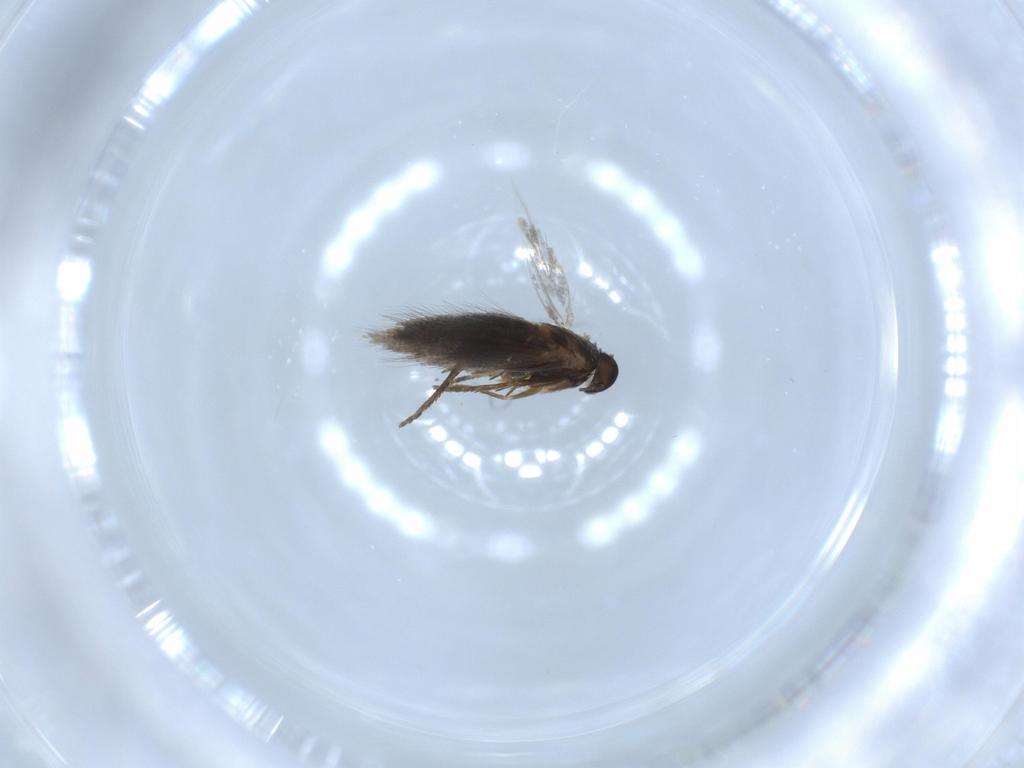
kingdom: Animalia
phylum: Arthropoda
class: Insecta
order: Lepidoptera
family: Heliozelidae
